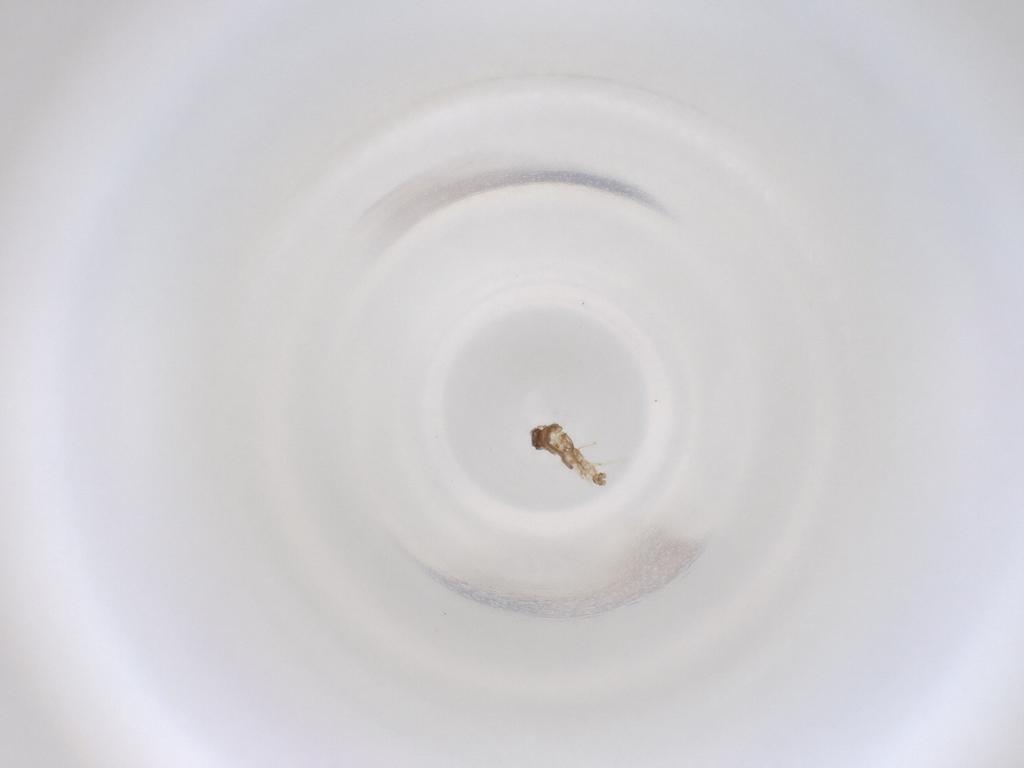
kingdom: Animalia
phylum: Arthropoda
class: Insecta
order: Diptera
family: Cecidomyiidae
